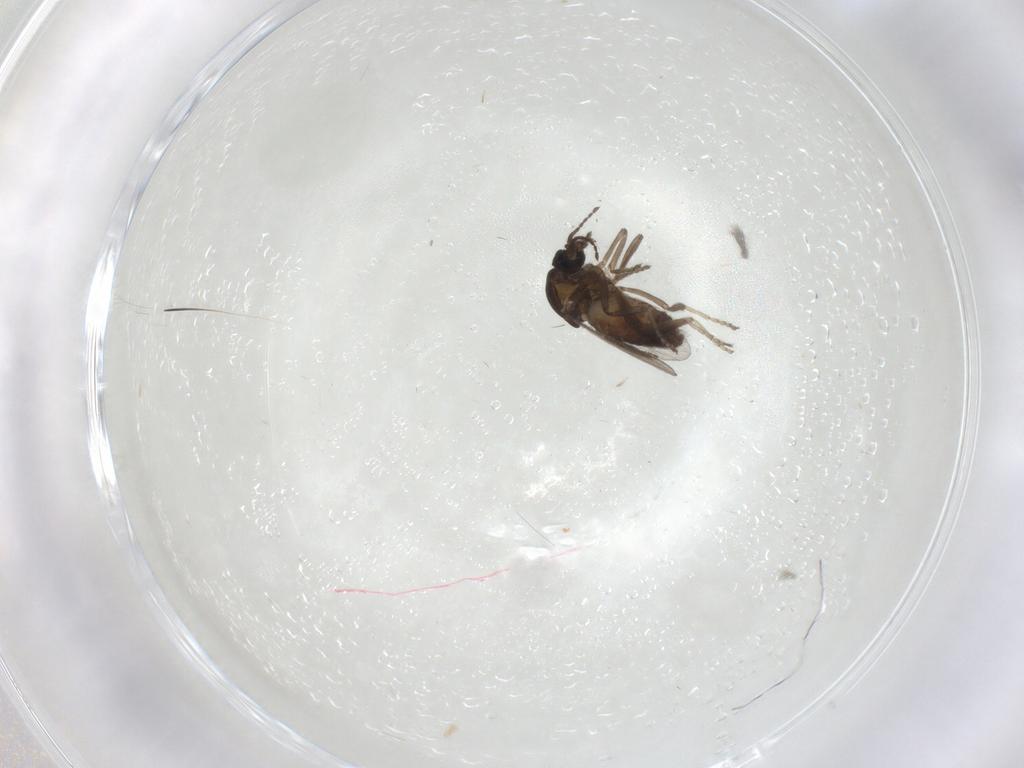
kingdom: Animalia
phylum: Arthropoda
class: Insecta
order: Diptera
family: Ceratopogonidae
